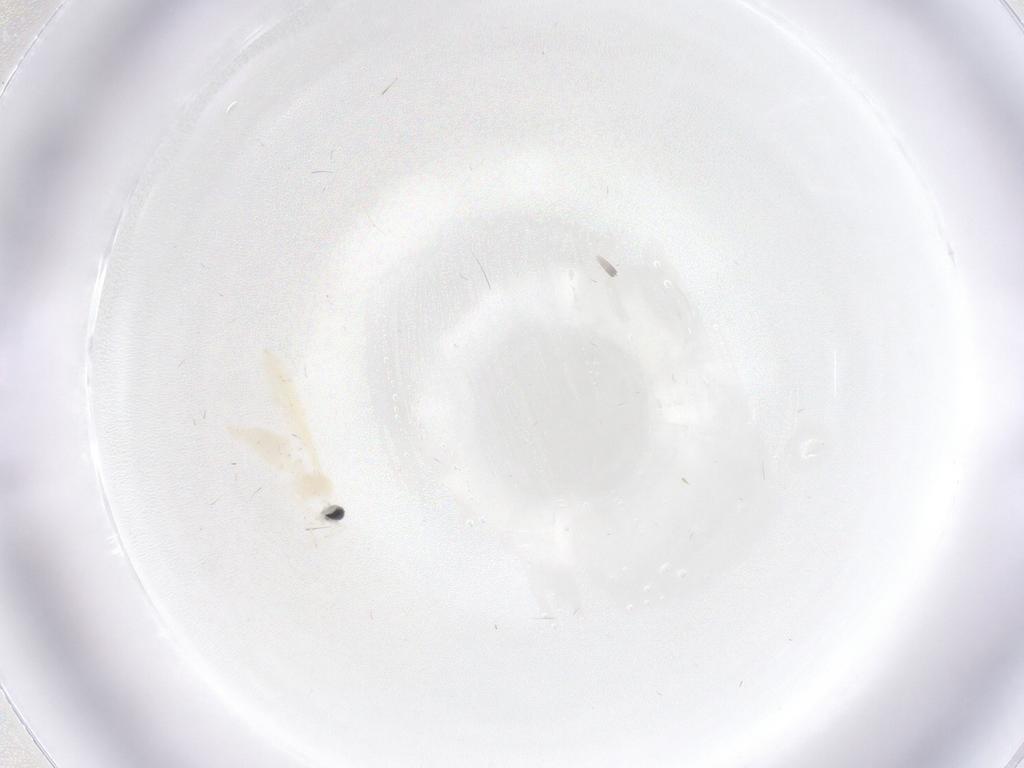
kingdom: Animalia
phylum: Arthropoda
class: Insecta
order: Diptera
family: Cecidomyiidae
